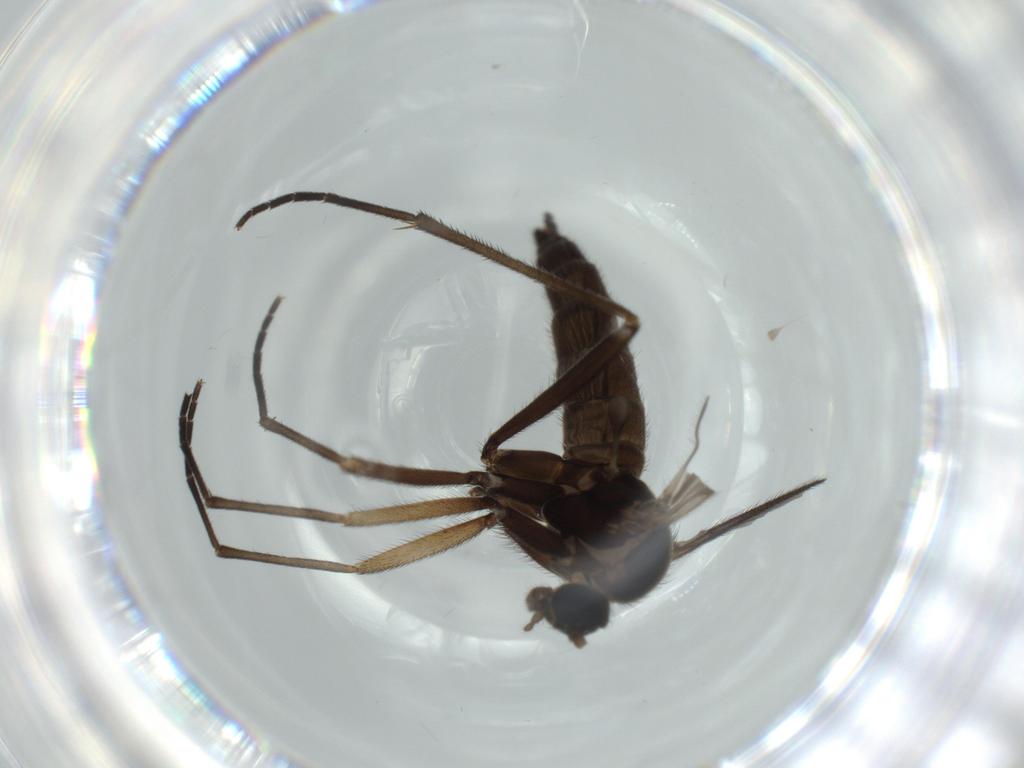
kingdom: Animalia
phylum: Arthropoda
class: Insecta
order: Diptera
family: Sciaridae
